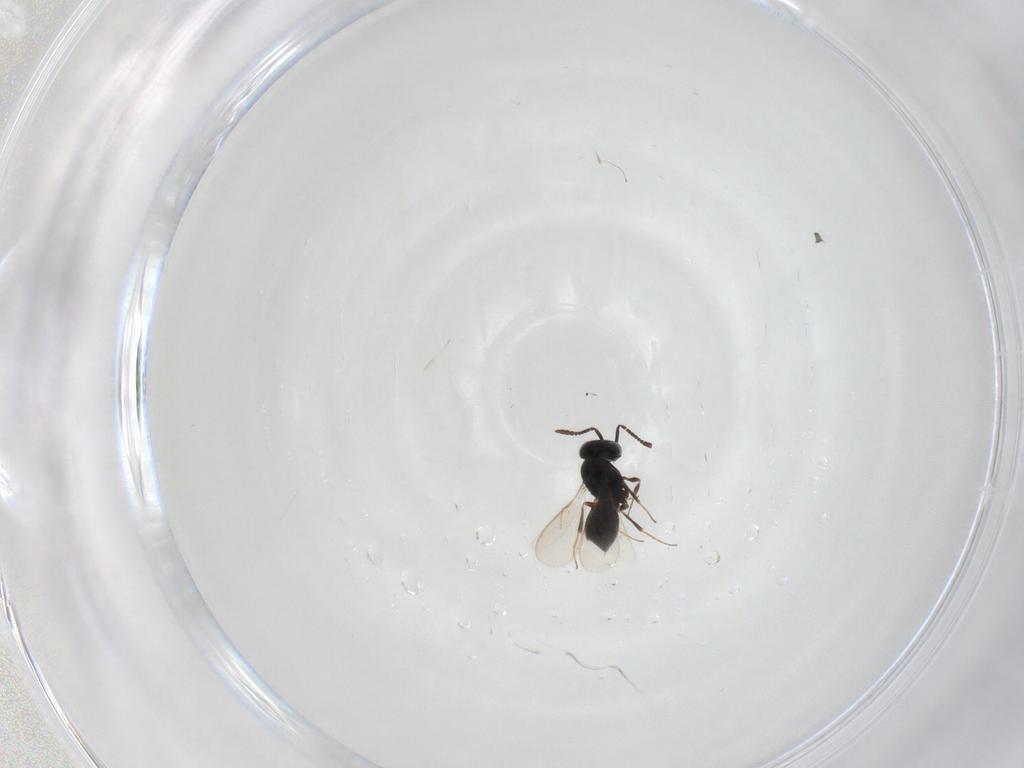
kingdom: Animalia
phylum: Arthropoda
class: Insecta
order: Hymenoptera
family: Scelionidae
